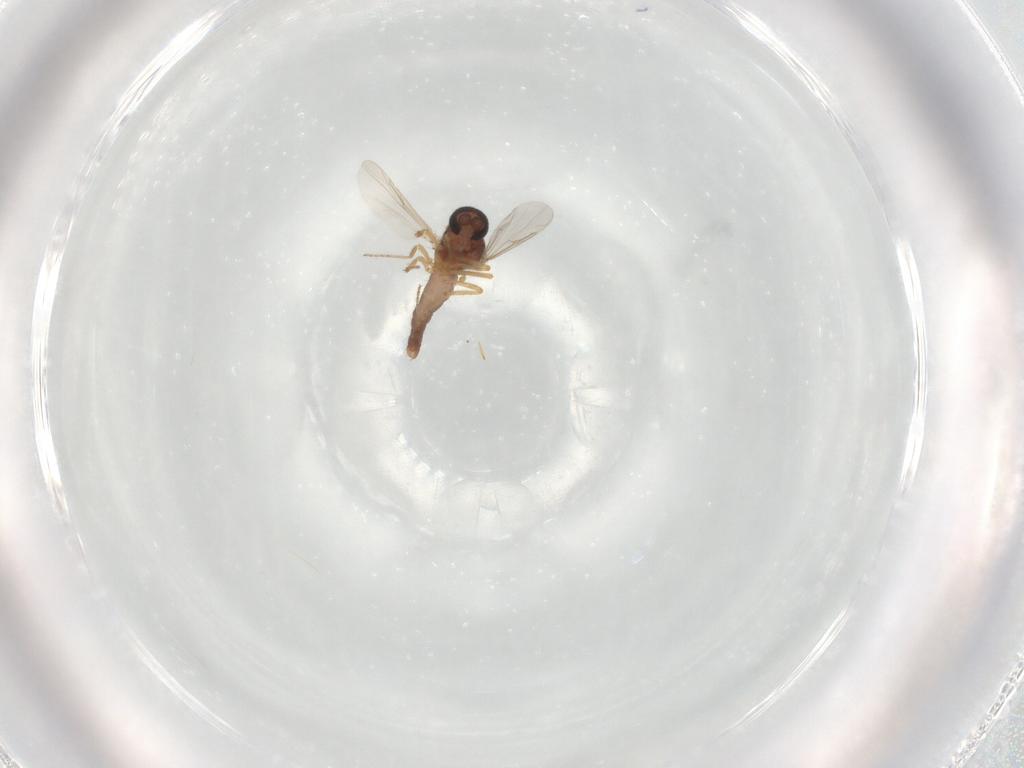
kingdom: Animalia
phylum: Arthropoda
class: Insecta
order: Diptera
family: Ceratopogonidae
